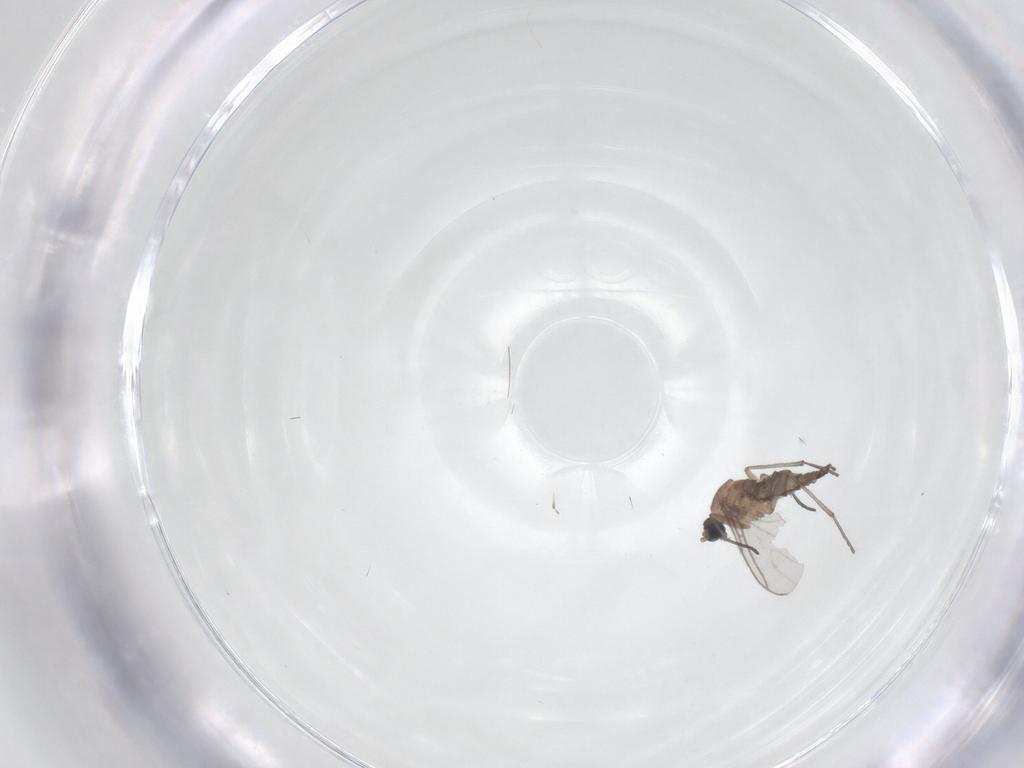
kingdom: Animalia
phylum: Arthropoda
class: Insecta
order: Diptera
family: Sciaridae
